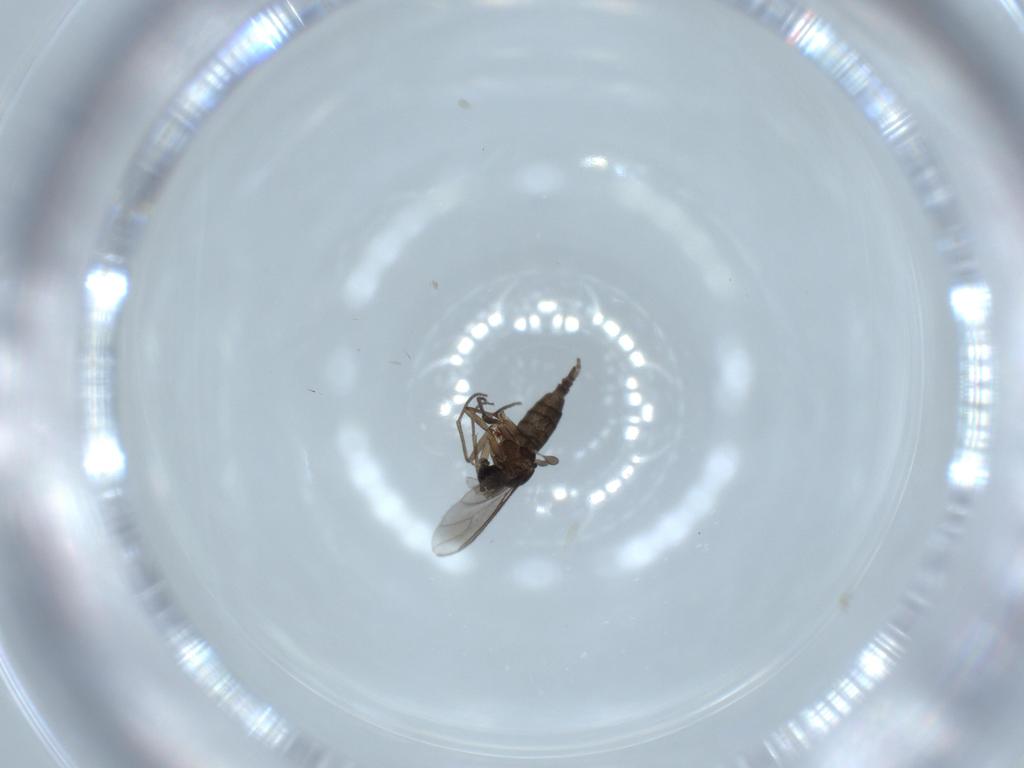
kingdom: Animalia
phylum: Arthropoda
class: Insecta
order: Diptera
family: Sciaridae
